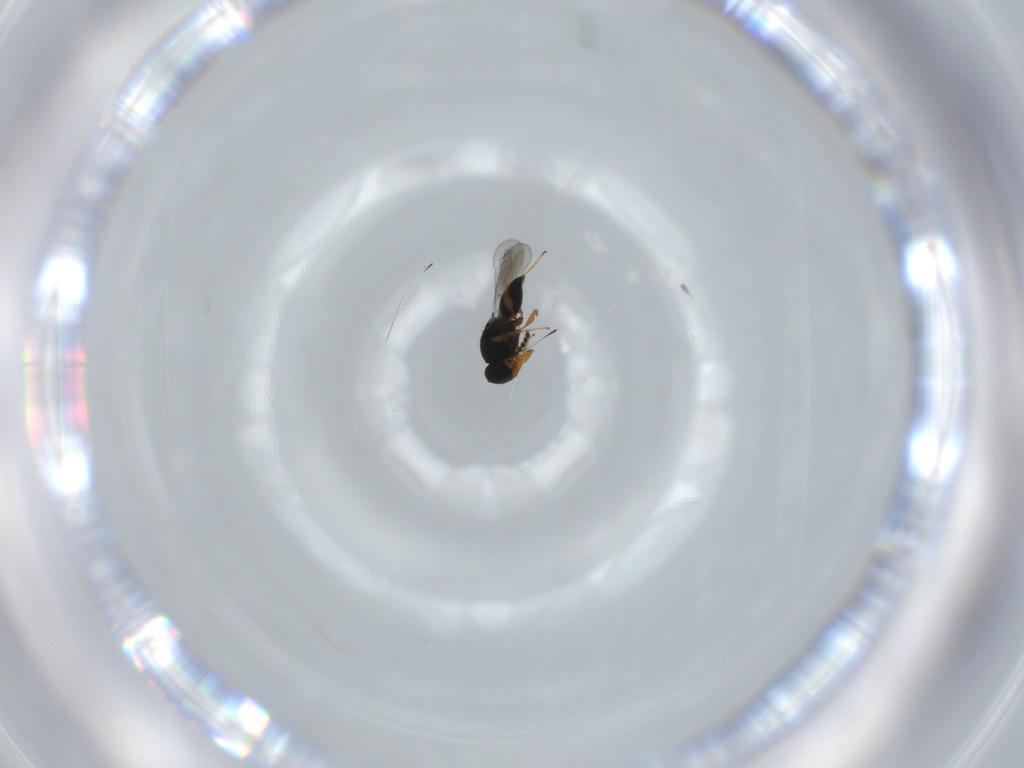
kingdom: Animalia
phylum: Arthropoda
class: Insecta
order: Hymenoptera
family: Platygastridae
